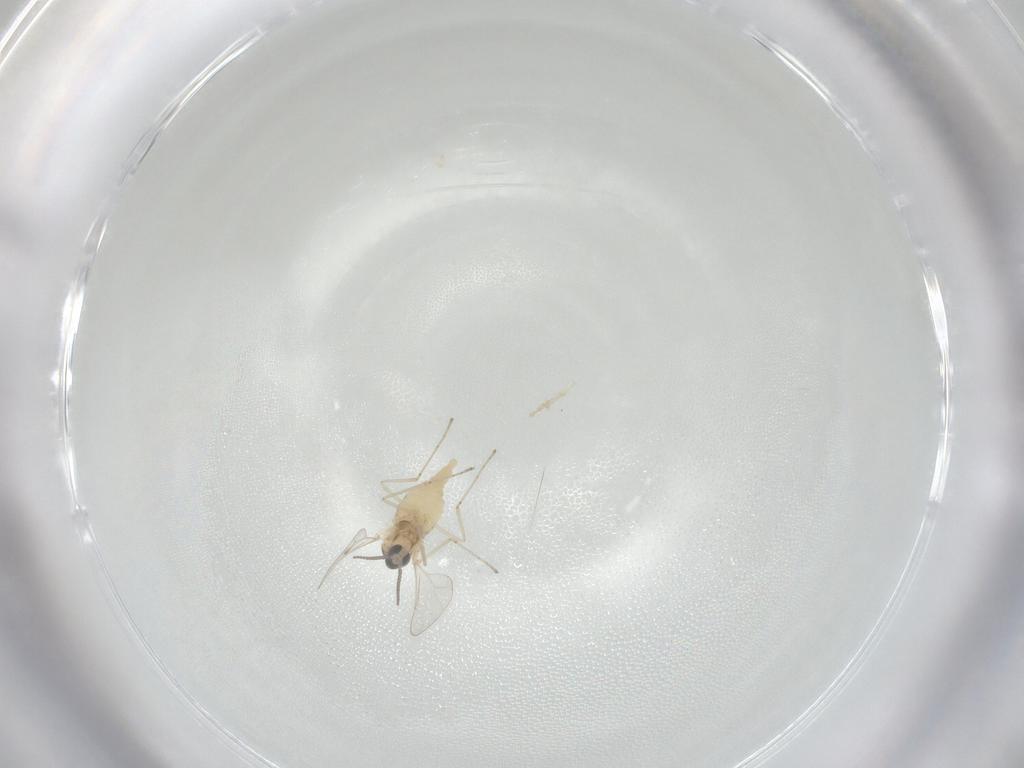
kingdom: Animalia
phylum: Arthropoda
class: Insecta
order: Diptera
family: Cecidomyiidae
